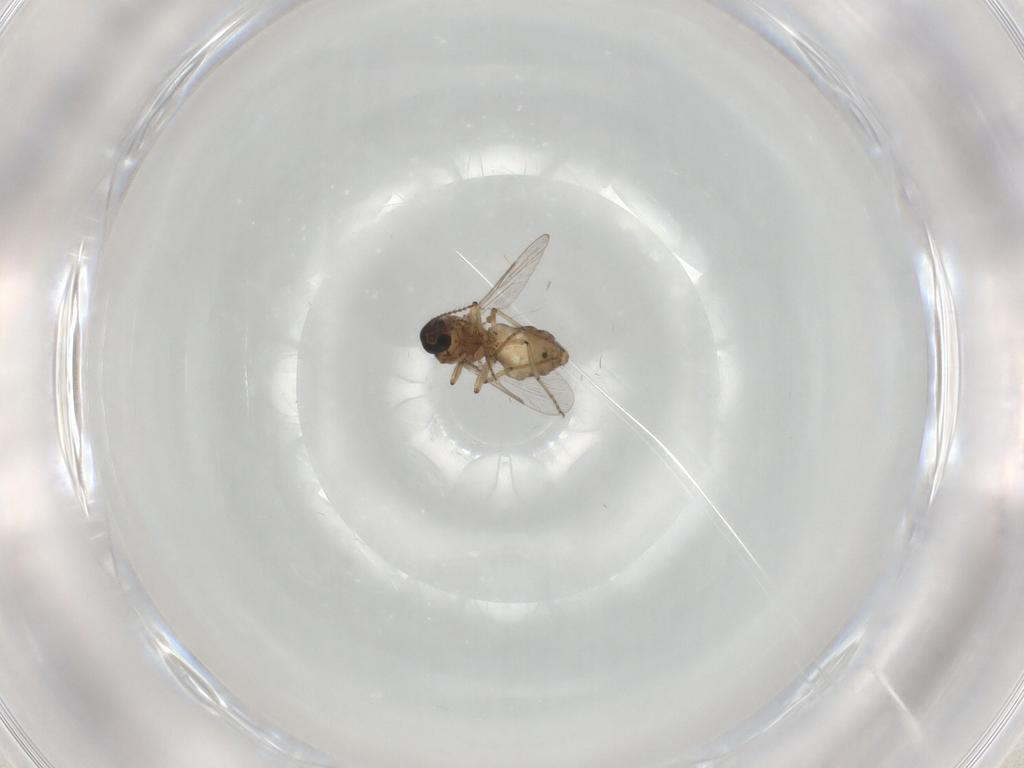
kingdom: Animalia
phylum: Arthropoda
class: Insecta
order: Diptera
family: Ceratopogonidae
